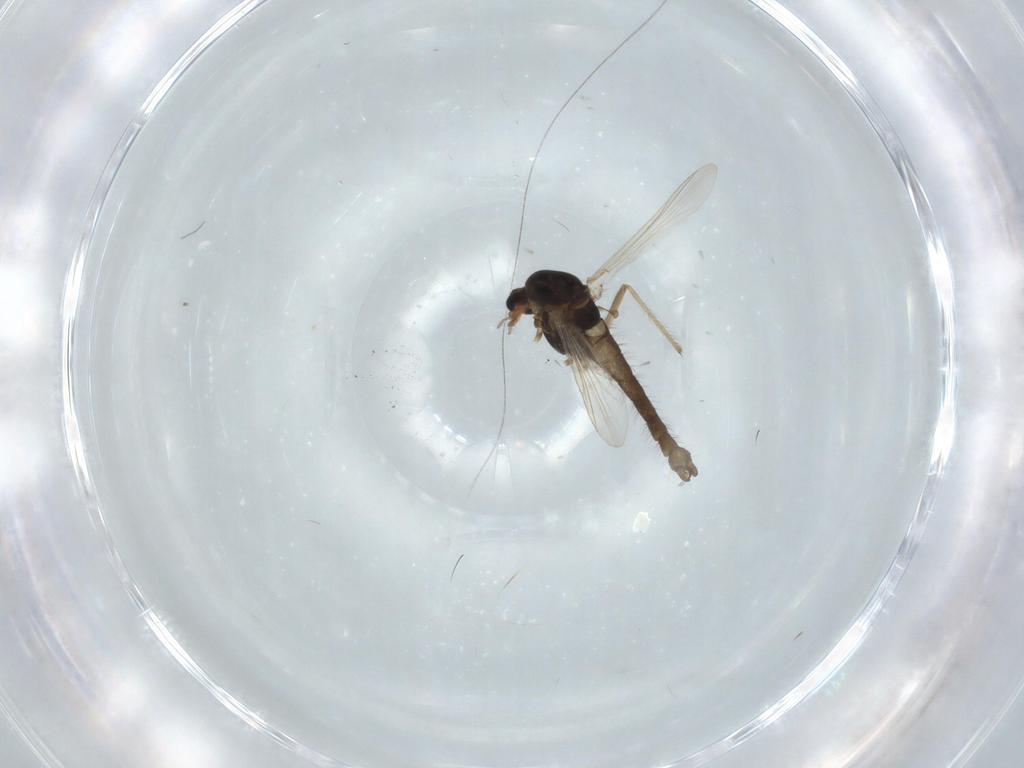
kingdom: Animalia
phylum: Arthropoda
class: Insecta
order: Diptera
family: Chironomidae
